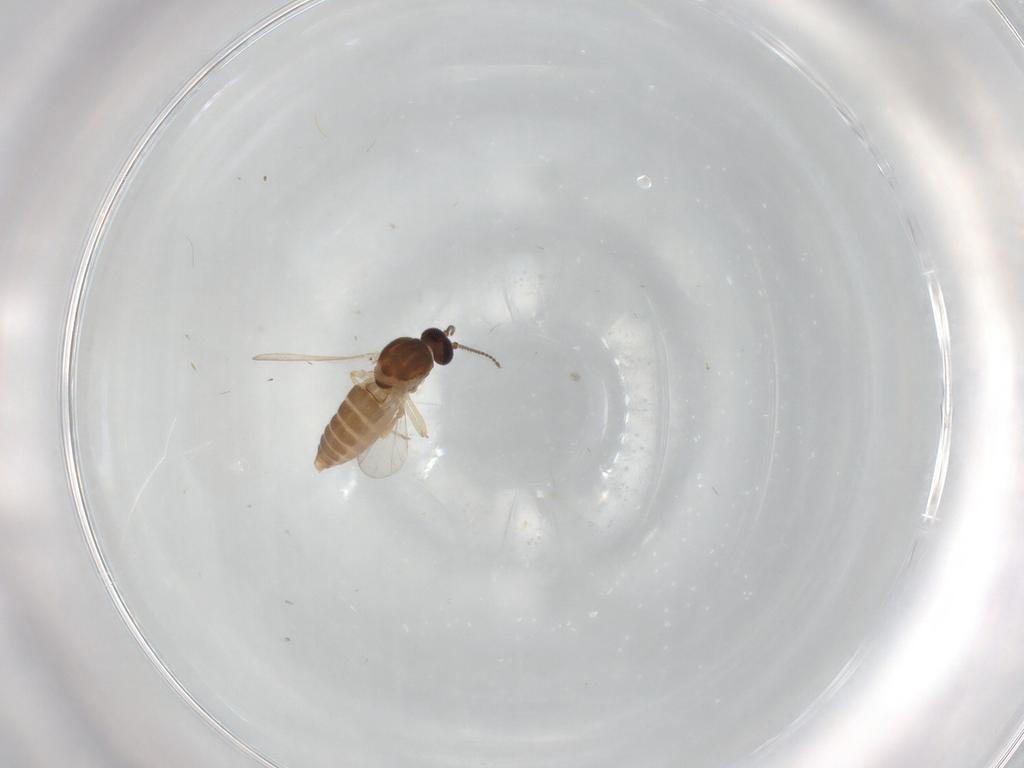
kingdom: Animalia
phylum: Arthropoda
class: Insecta
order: Diptera
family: Ceratopogonidae
